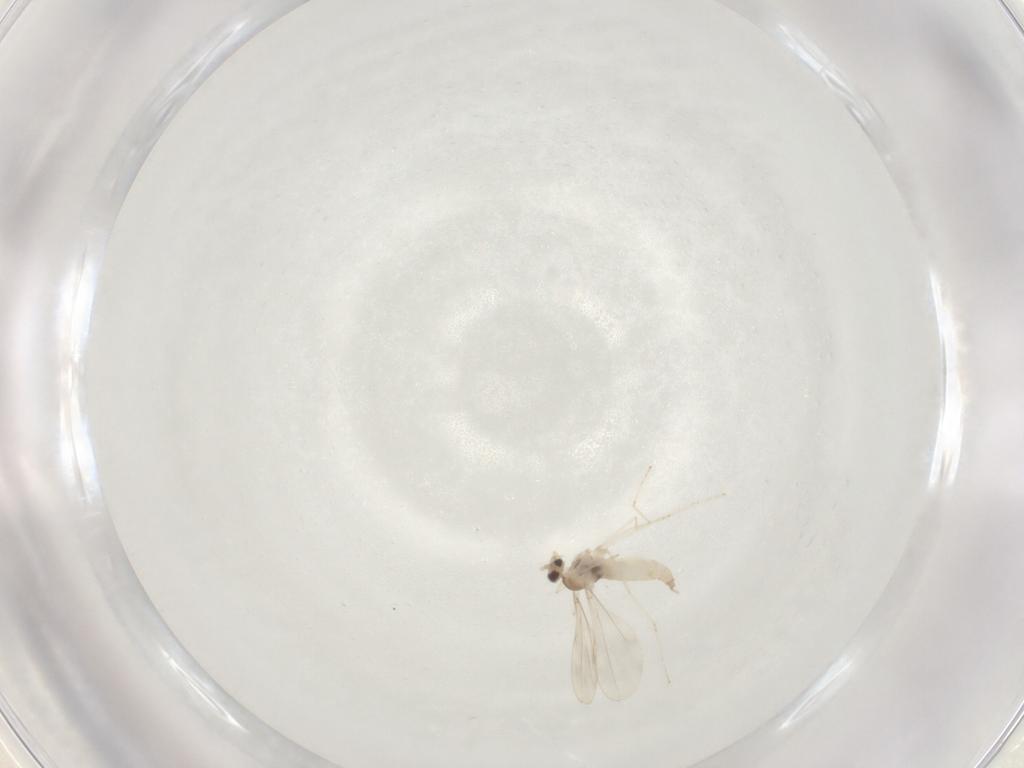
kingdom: Animalia
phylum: Arthropoda
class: Insecta
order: Diptera
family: Cecidomyiidae
